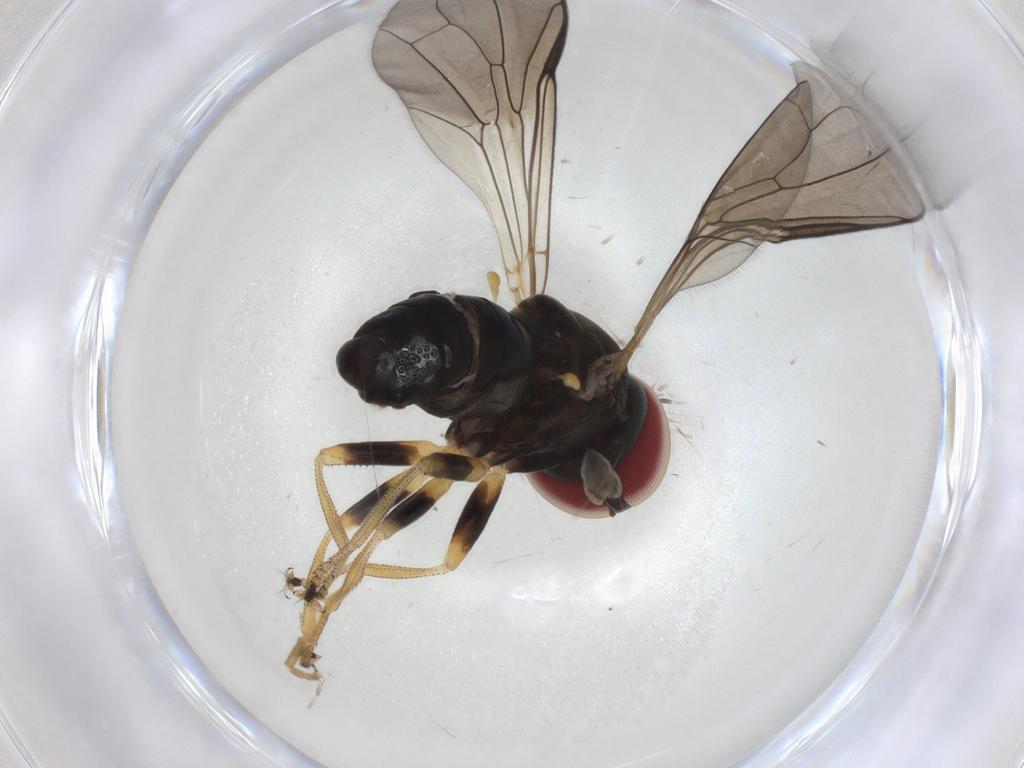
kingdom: Animalia
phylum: Arthropoda
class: Insecta
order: Diptera
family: Pipunculidae
